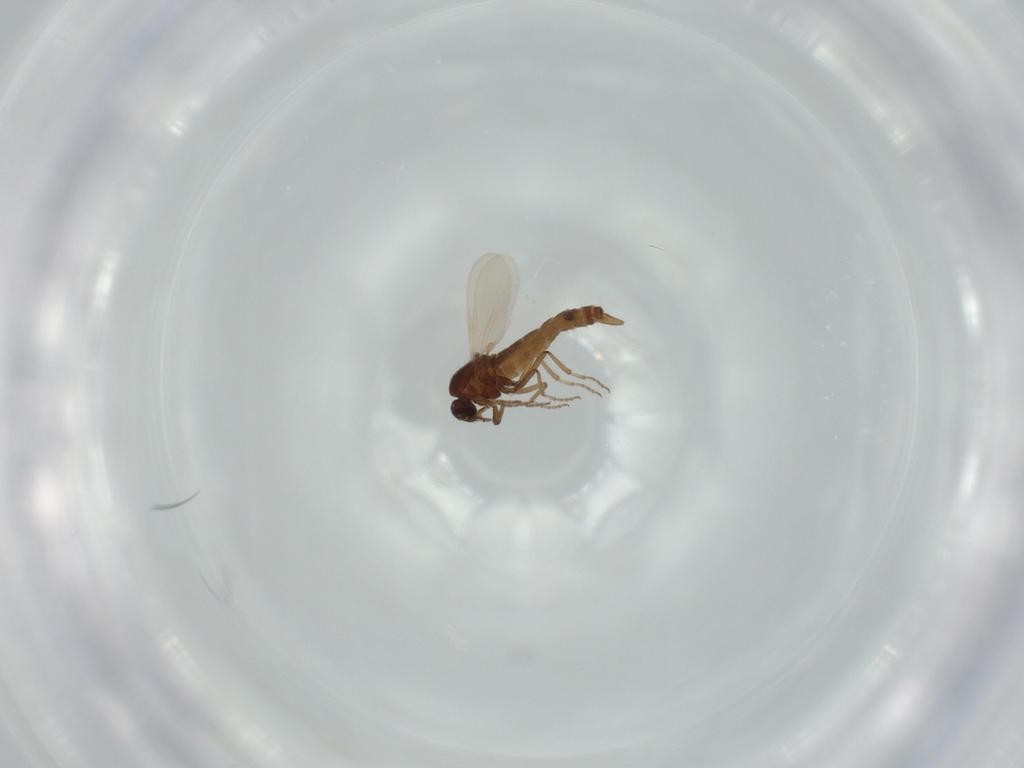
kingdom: Animalia
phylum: Arthropoda
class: Insecta
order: Diptera
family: Ceratopogonidae
